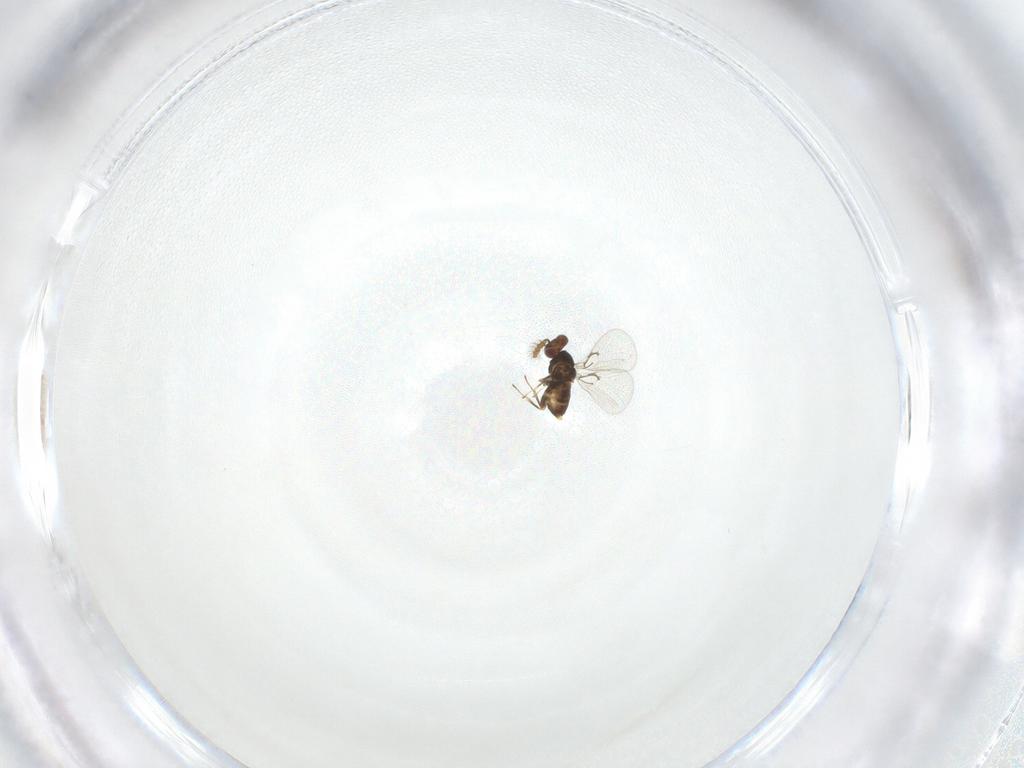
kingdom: Animalia
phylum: Arthropoda
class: Insecta
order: Hymenoptera
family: Trichogrammatidae
